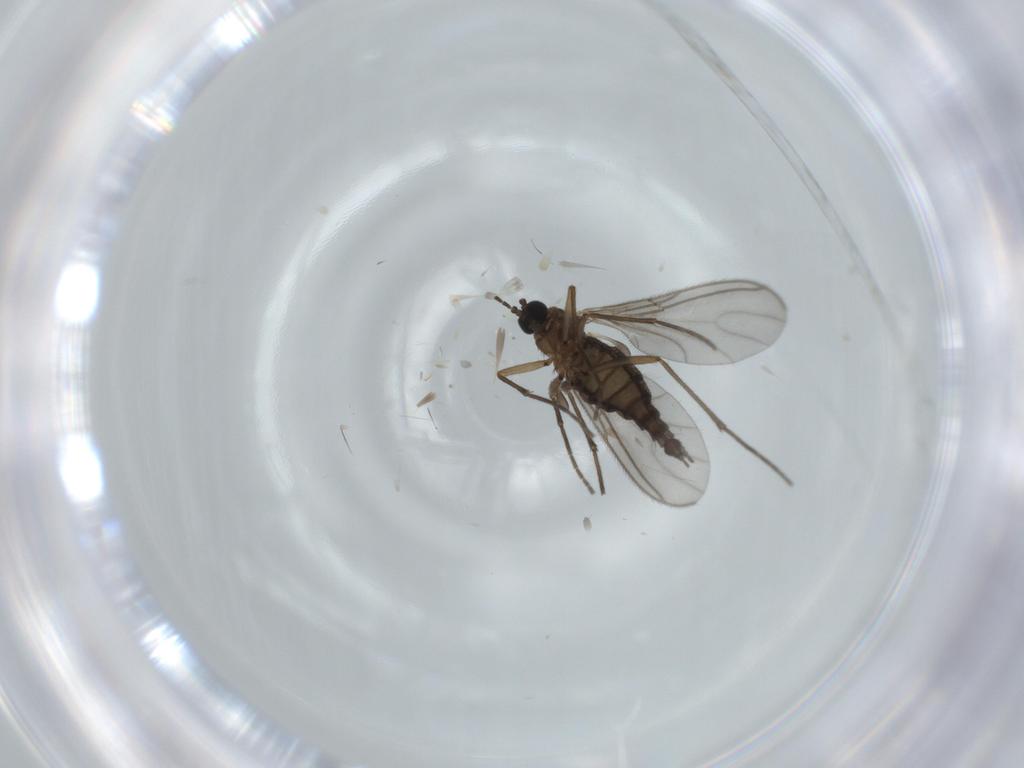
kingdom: Animalia
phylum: Arthropoda
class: Insecta
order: Diptera
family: Sciaridae
